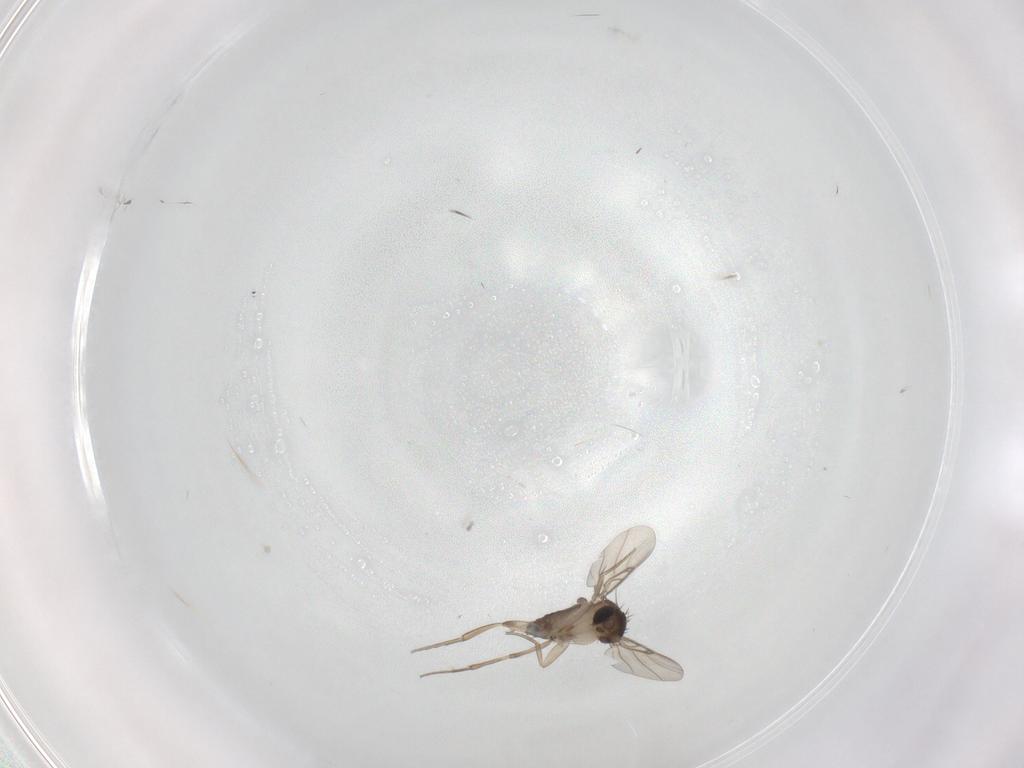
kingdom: Animalia
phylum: Arthropoda
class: Insecta
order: Diptera
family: Phoridae
